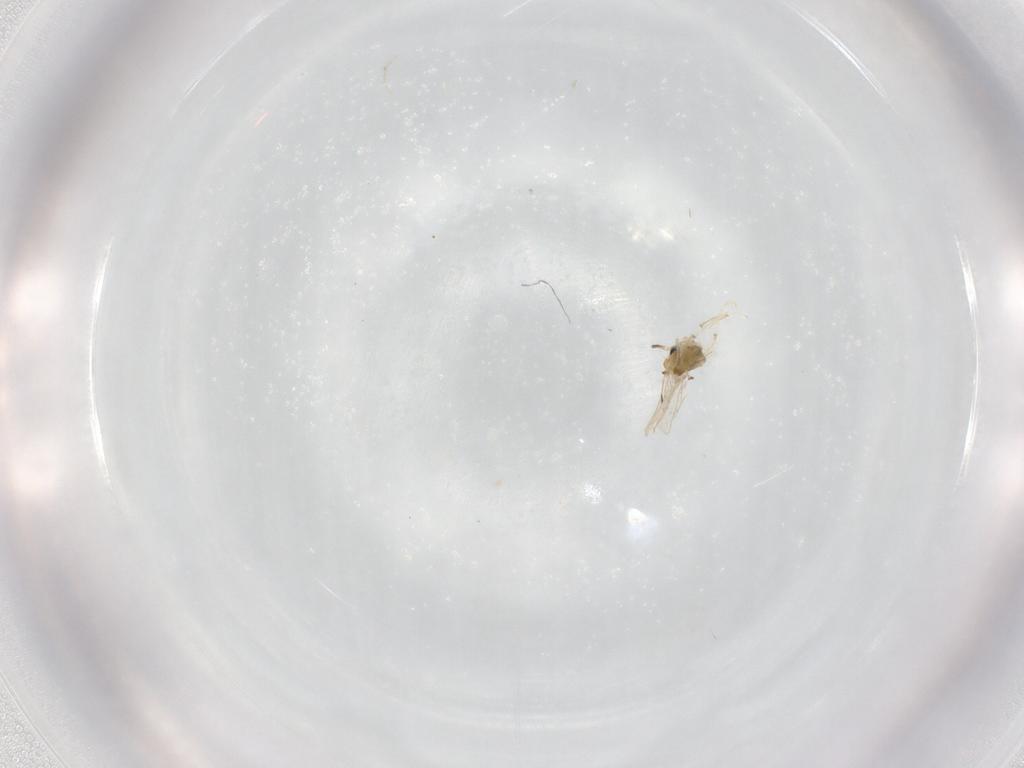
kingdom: Animalia
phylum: Arthropoda
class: Insecta
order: Diptera
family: Chironomidae
